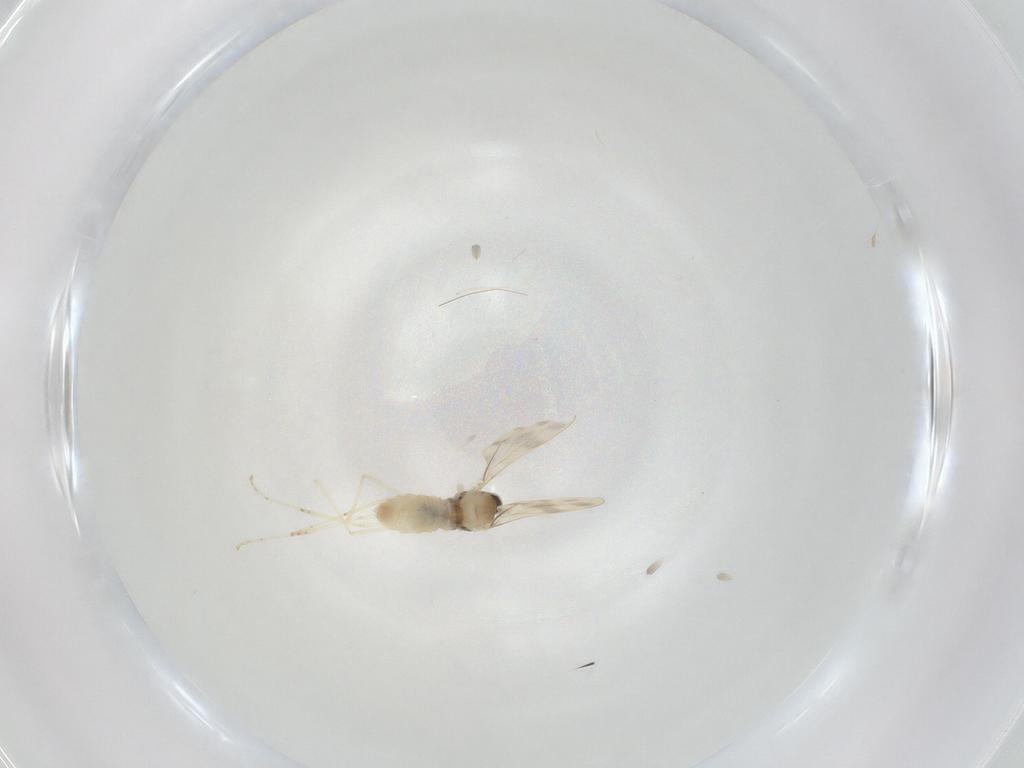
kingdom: Animalia
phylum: Arthropoda
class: Insecta
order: Diptera
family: Cecidomyiidae
